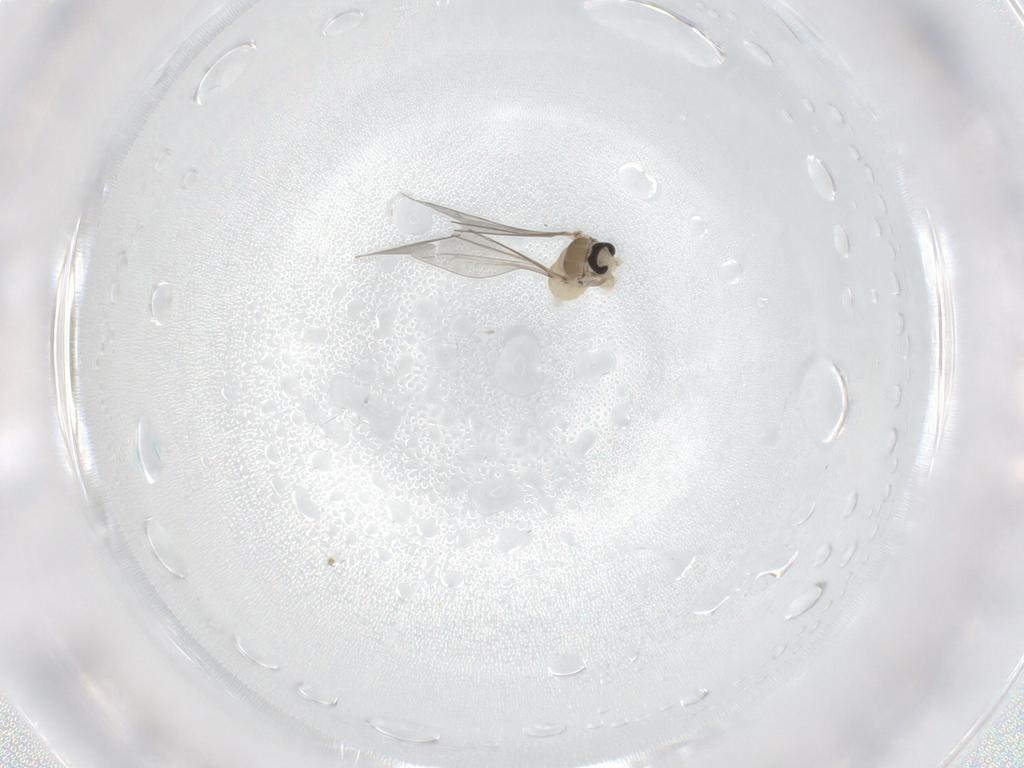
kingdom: Animalia
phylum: Arthropoda
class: Insecta
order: Diptera
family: Cecidomyiidae
